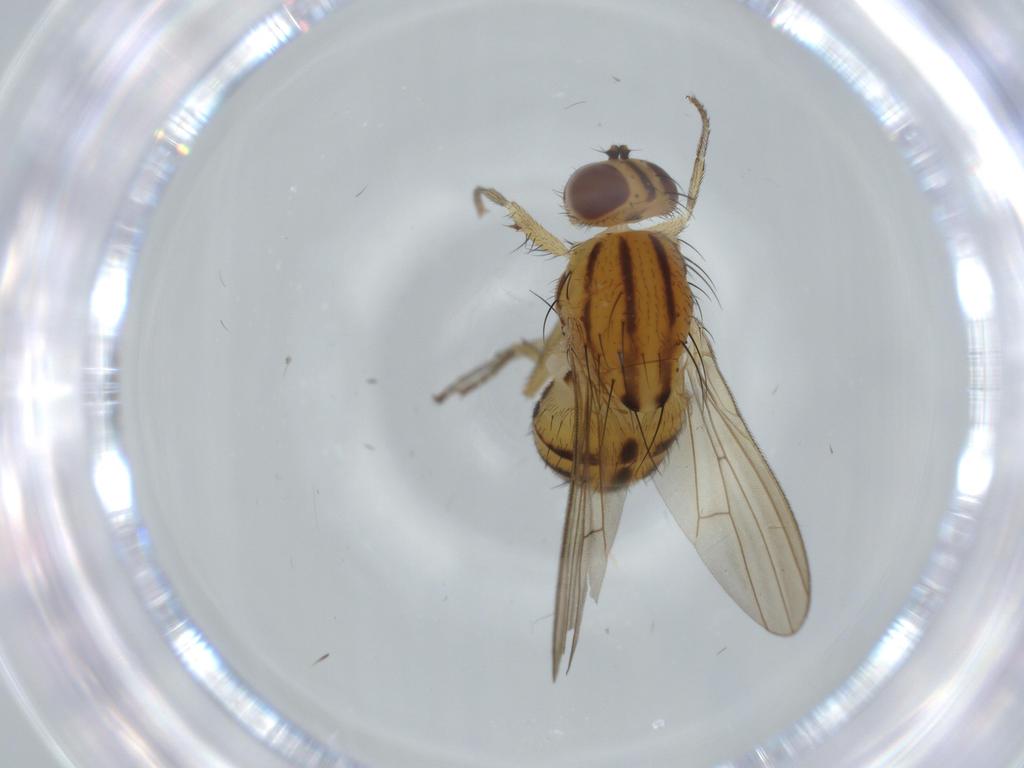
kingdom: Animalia
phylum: Arthropoda
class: Insecta
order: Diptera
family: Lauxaniidae
